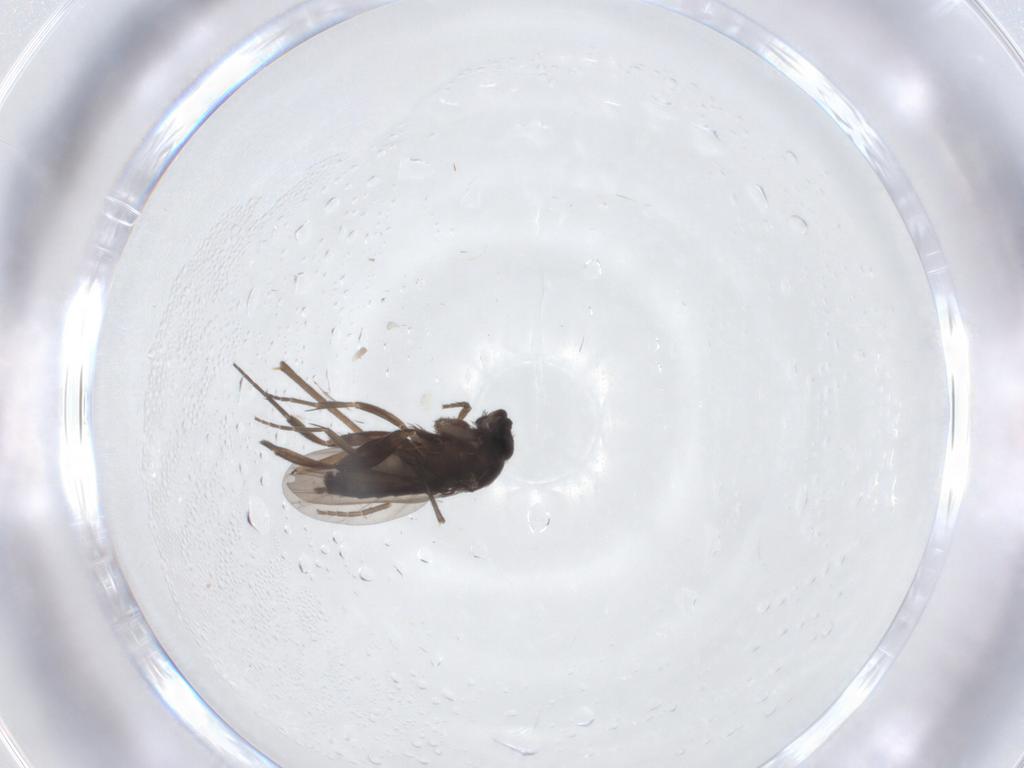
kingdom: Animalia
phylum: Arthropoda
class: Insecta
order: Diptera
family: Phoridae
